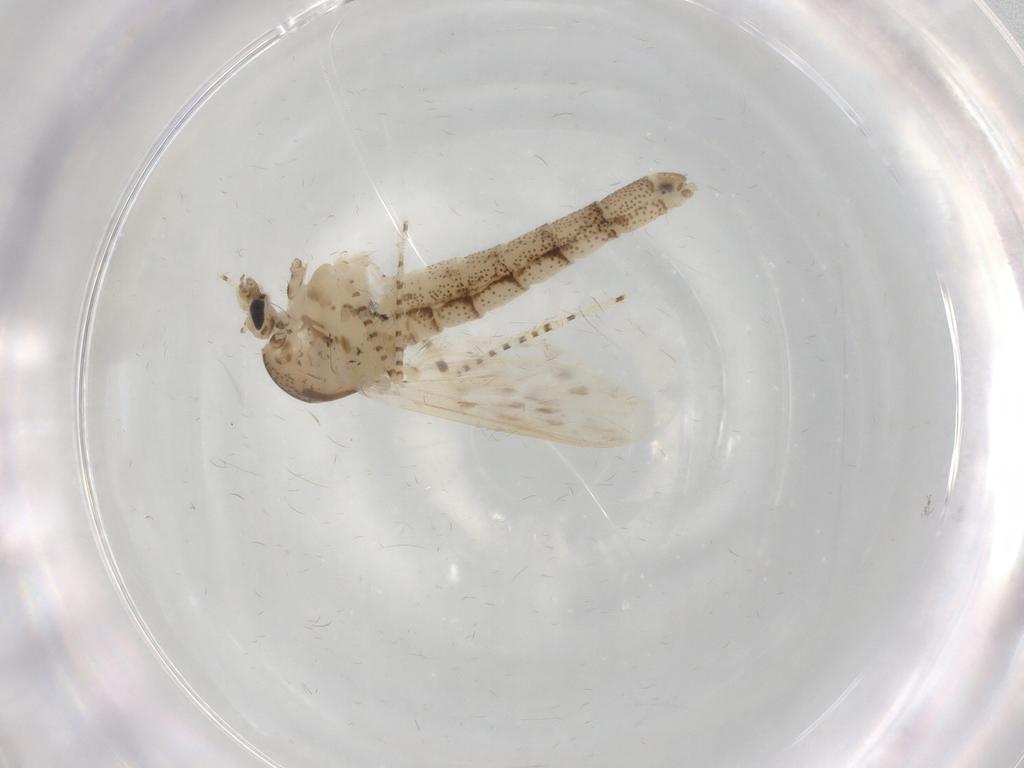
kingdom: Animalia
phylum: Arthropoda
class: Insecta
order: Diptera
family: Chaoboridae
